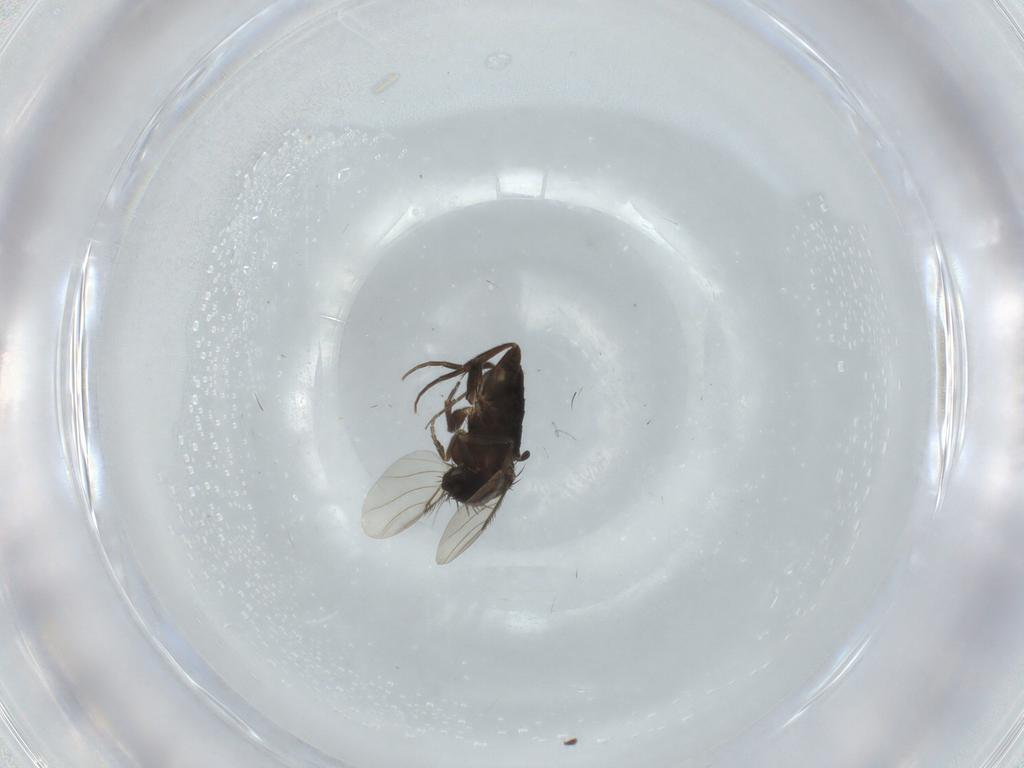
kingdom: Animalia
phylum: Arthropoda
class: Insecta
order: Diptera
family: Phoridae
